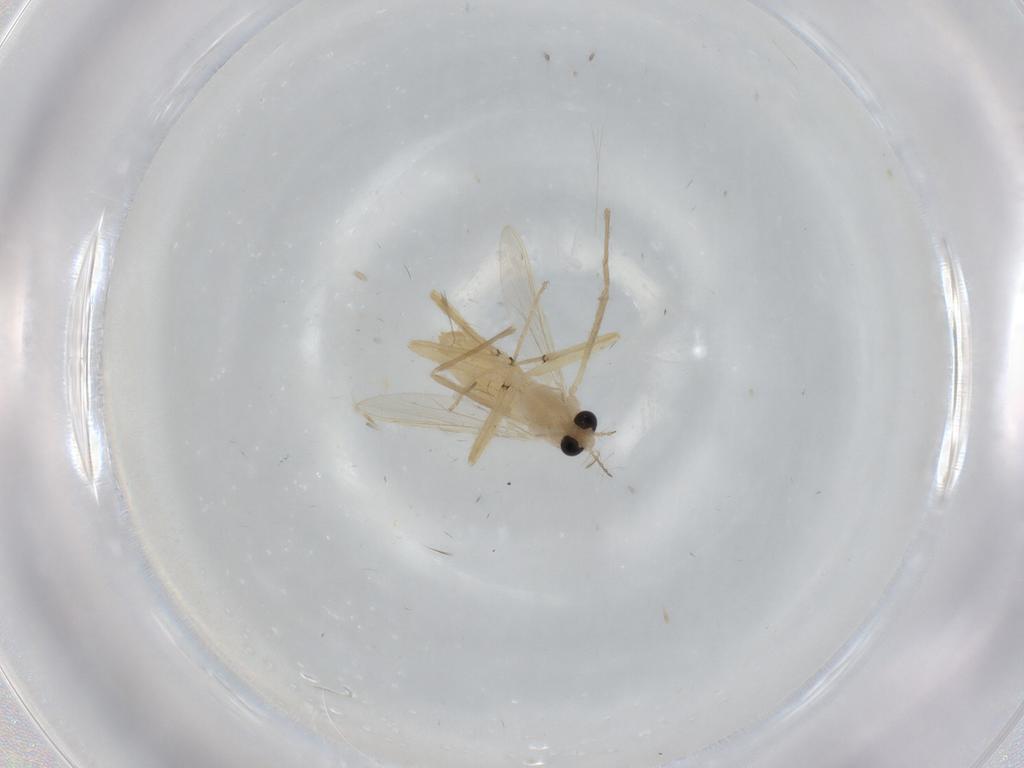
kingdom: Animalia
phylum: Arthropoda
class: Insecta
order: Diptera
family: Chironomidae
